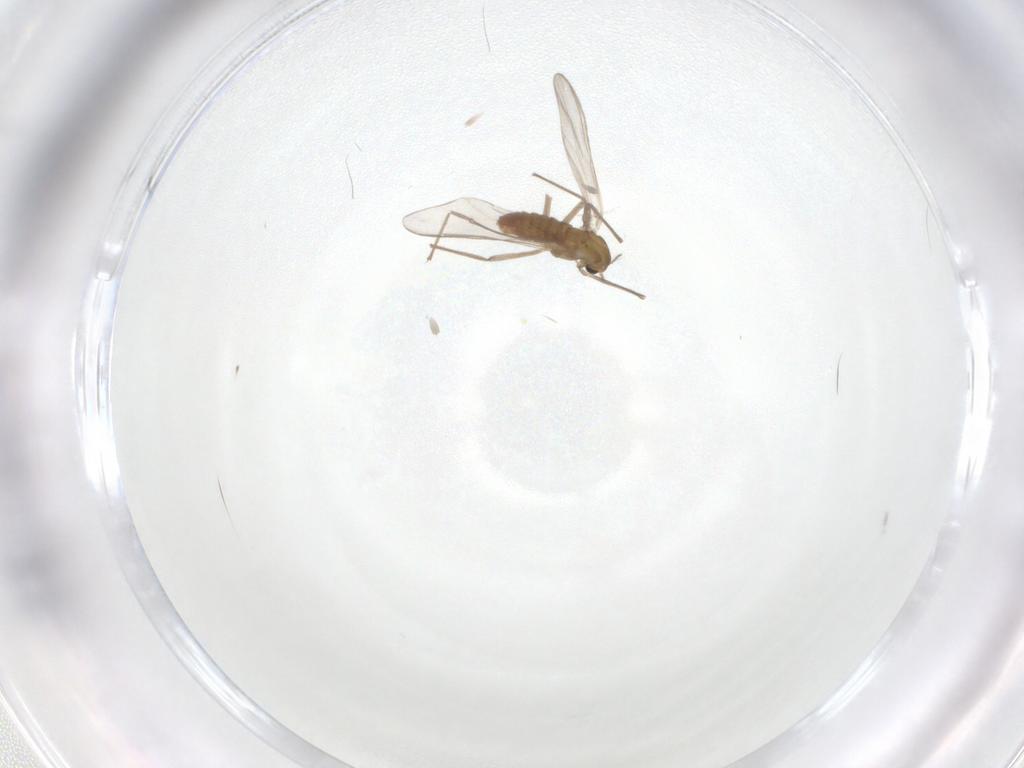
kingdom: Animalia
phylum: Arthropoda
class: Insecta
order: Diptera
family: Chironomidae
